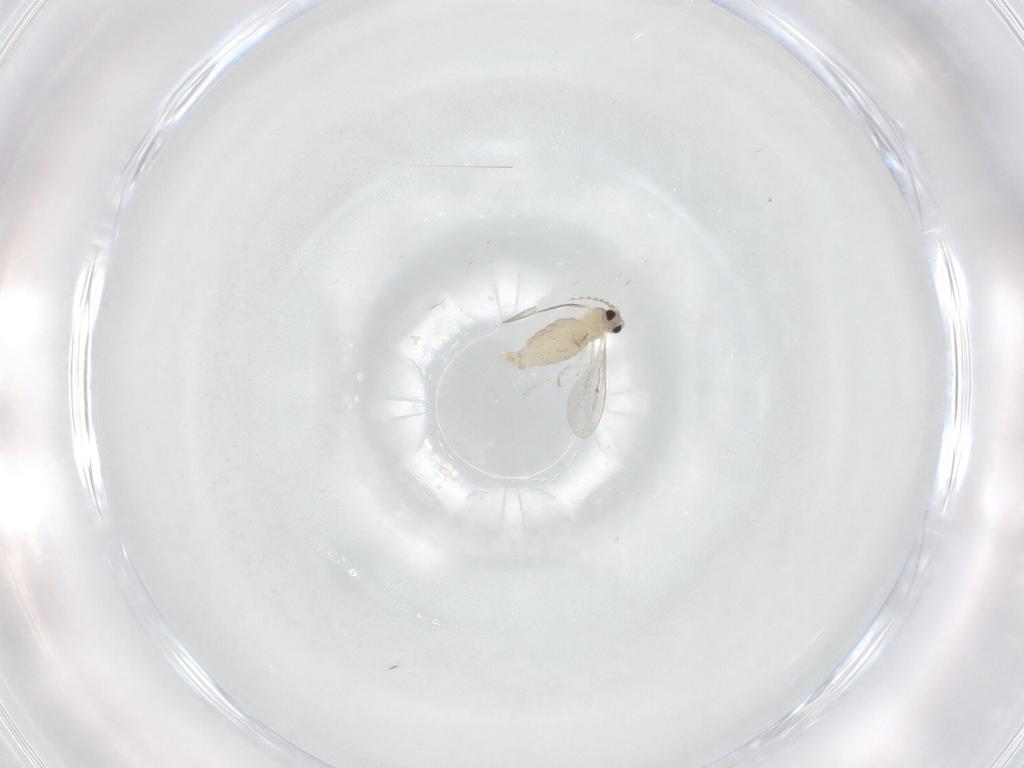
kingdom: Animalia
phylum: Arthropoda
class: Insecta
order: Diptera
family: Cecidomyiidae
